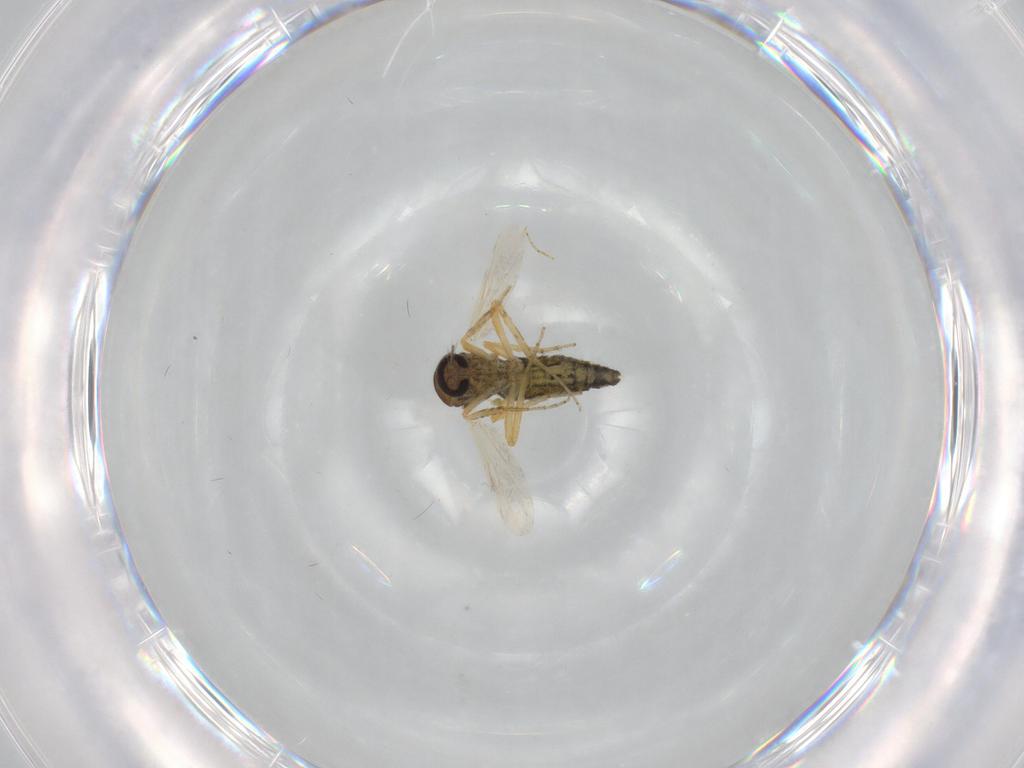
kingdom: Animalia
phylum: Arthropoda
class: Insecta
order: Diptera
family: Ceratopogonidae
